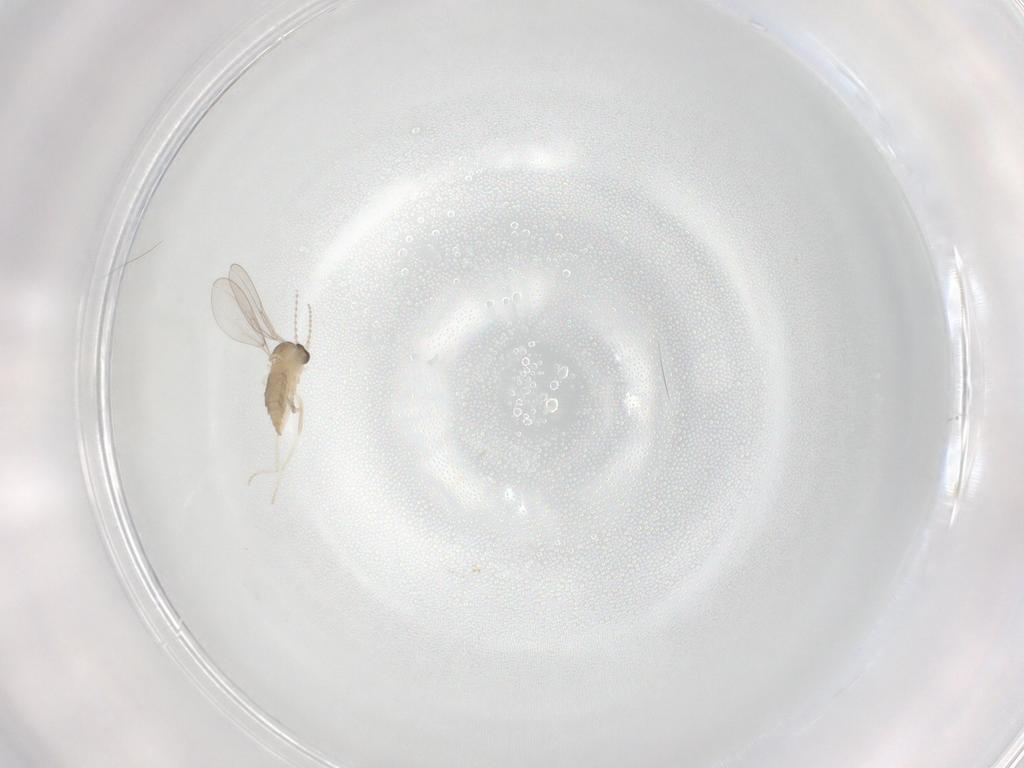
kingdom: Animalia
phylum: Arthropoda
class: Insecta
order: Diptera
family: Cecidomyiidae
